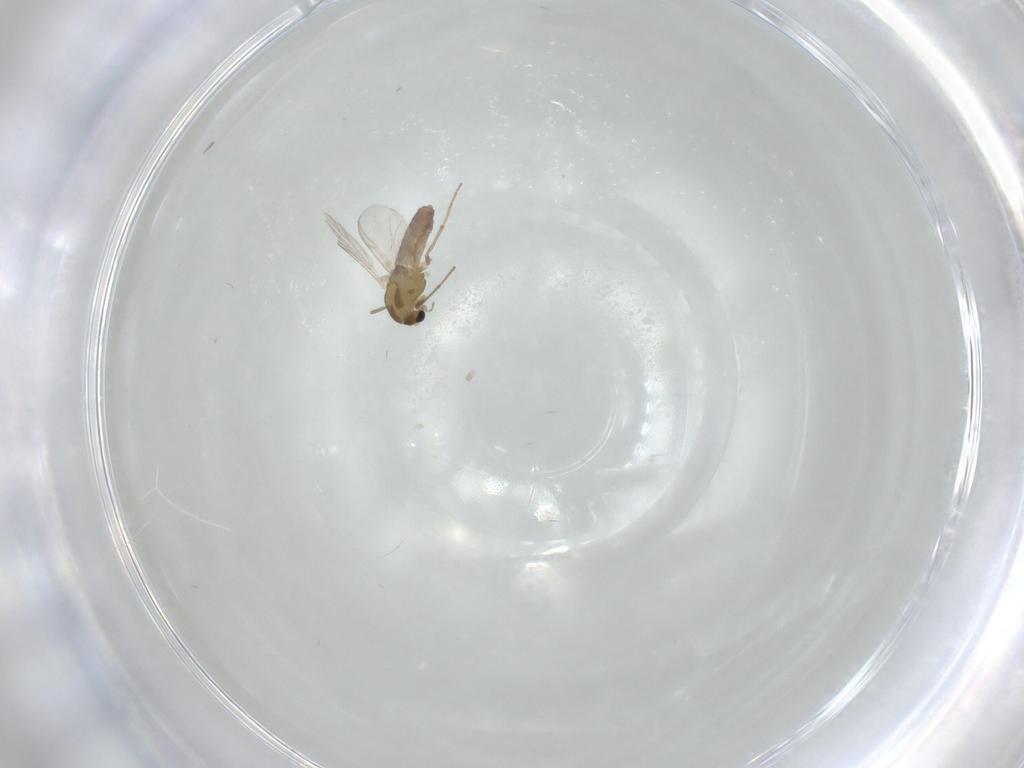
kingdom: Animalia
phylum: Arthropoda
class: Insecta
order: Diptera
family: Chironomidae
